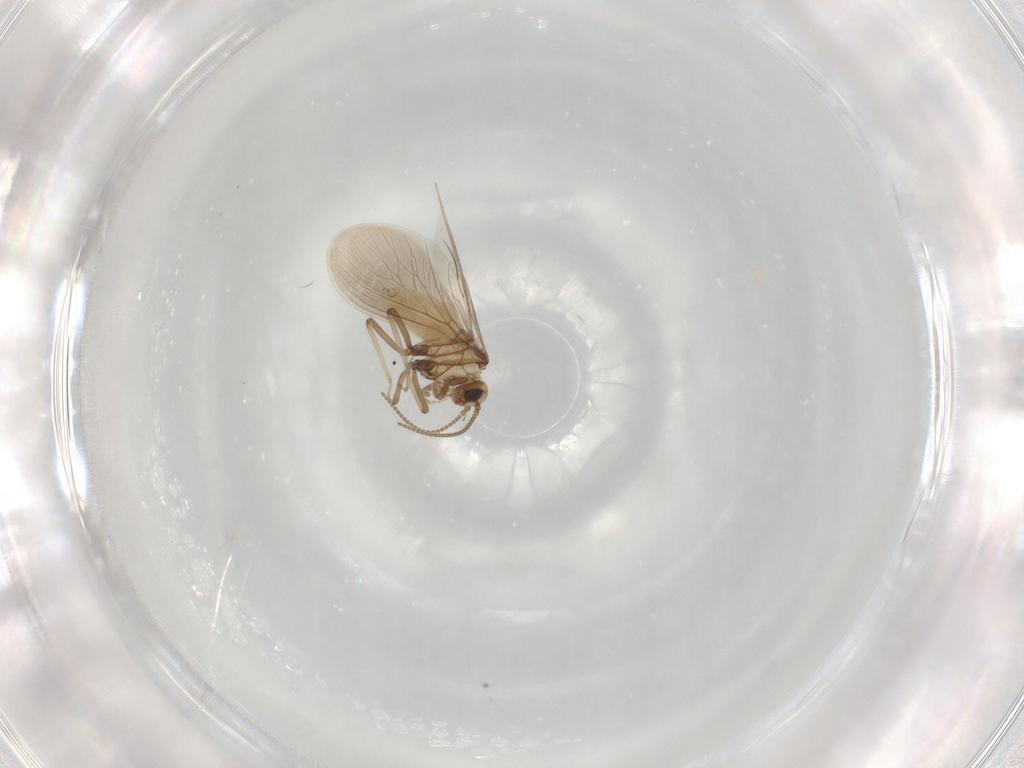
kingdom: Animalia
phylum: Arthropoda
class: Insecta
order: Neuroptera
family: Coniopterygidae
